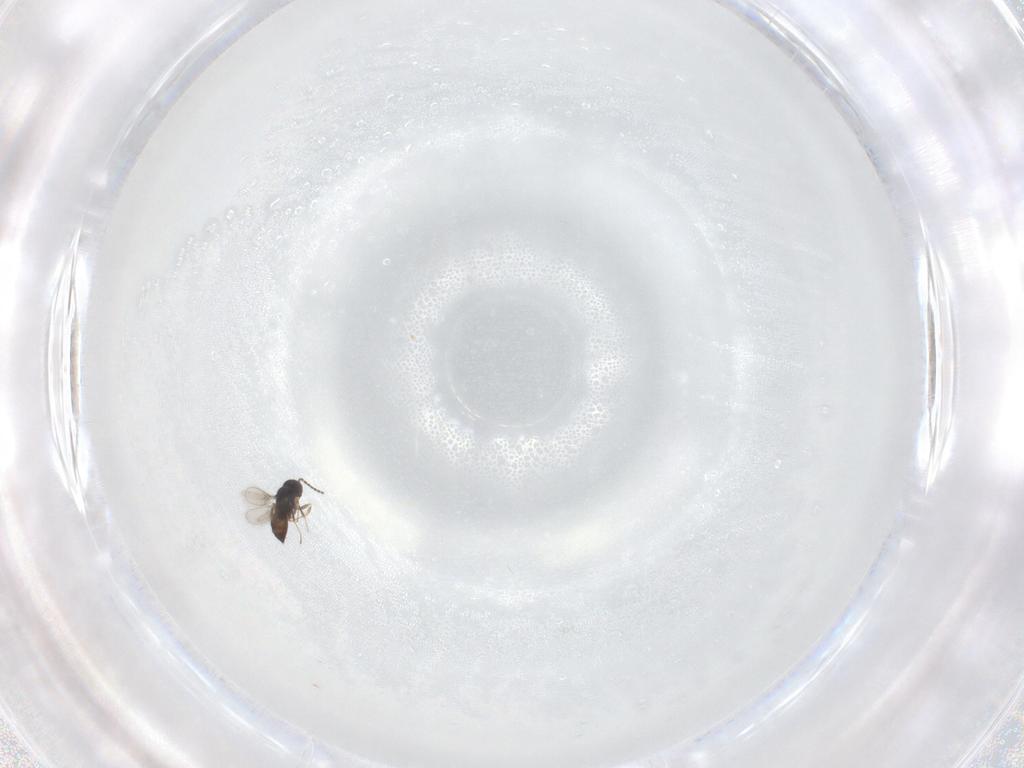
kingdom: Animalia
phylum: Arthropoda
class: Insecta
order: Hymenoptera
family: Scelionidae
